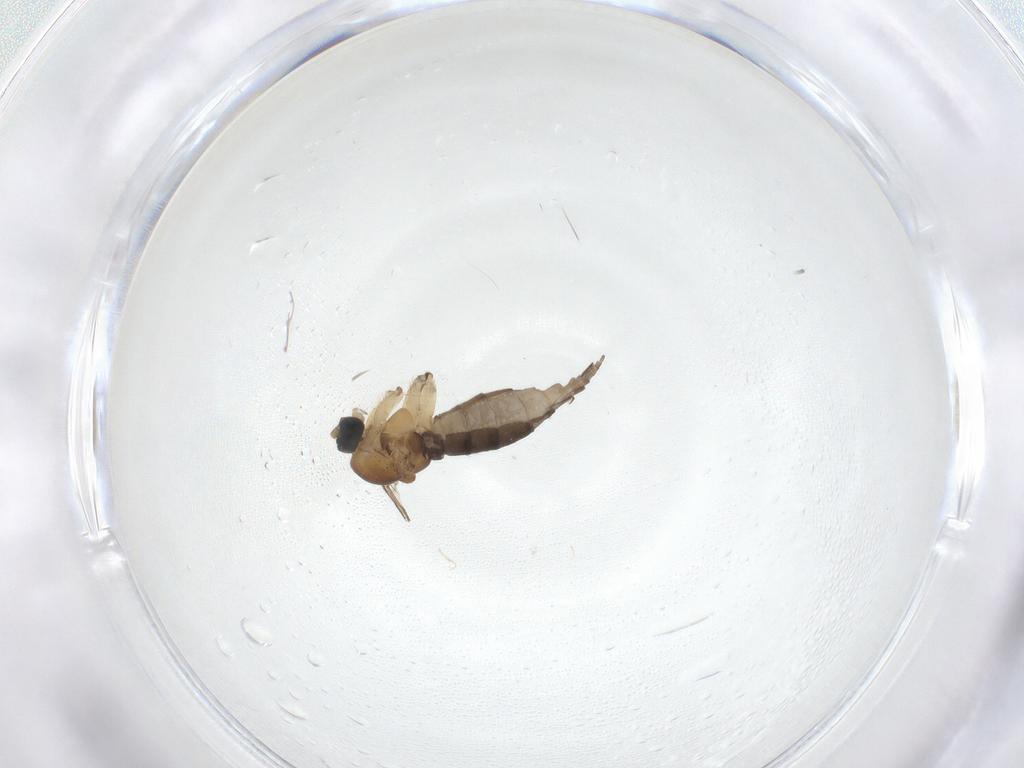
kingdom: Animalia
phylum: Arthropoda
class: Insecta
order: Diptera
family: Sciaridae
